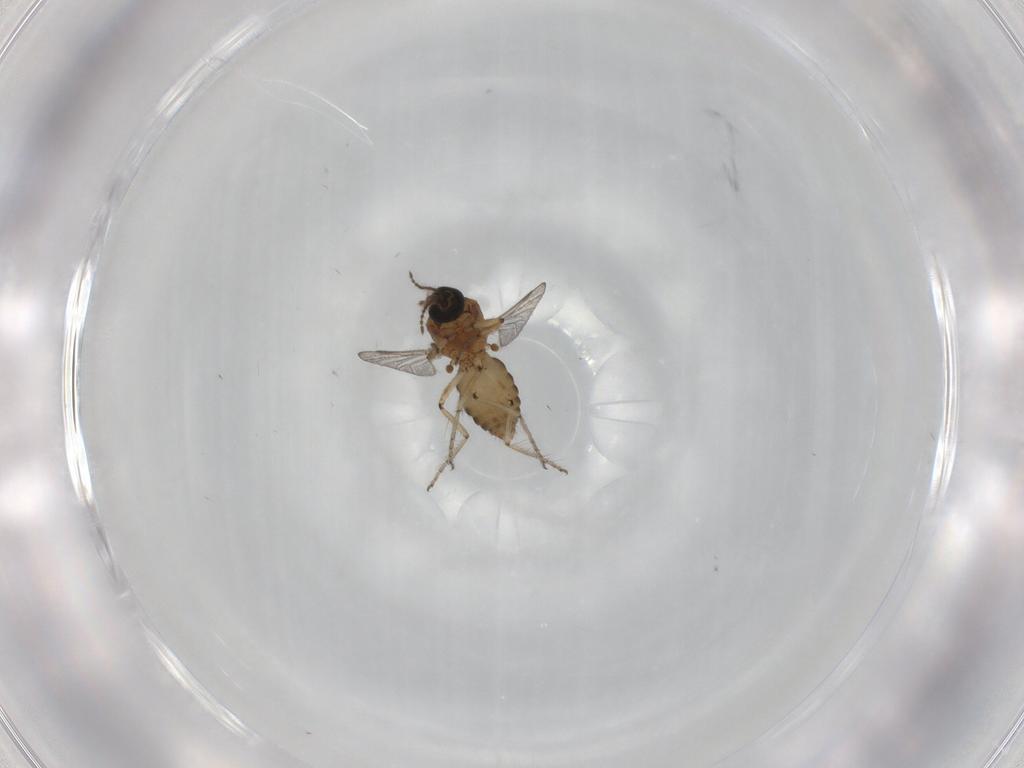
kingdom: Animalia
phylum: Arthropoda
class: Insecta
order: Diptera
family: Ceratopogonidae
